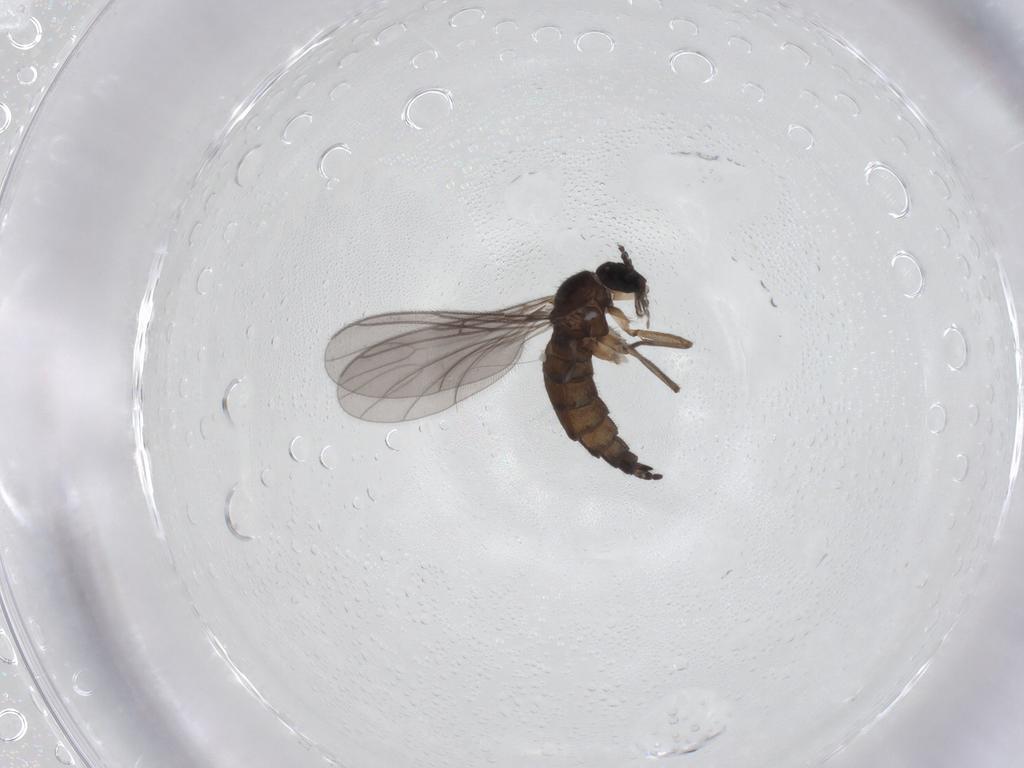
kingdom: Animalia
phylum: Arthropoda
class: Insecta
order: Diptera
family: Sciaridae
